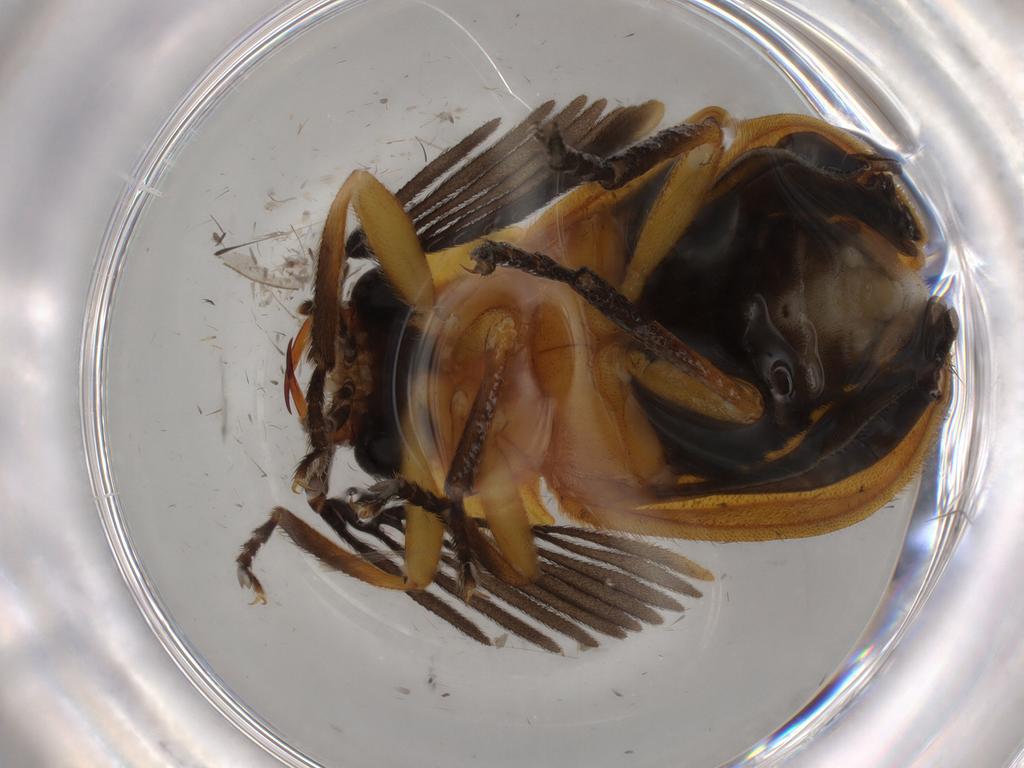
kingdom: Animalia
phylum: Arthropoda
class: Insecta
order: Coleoptera
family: Lampyridae
